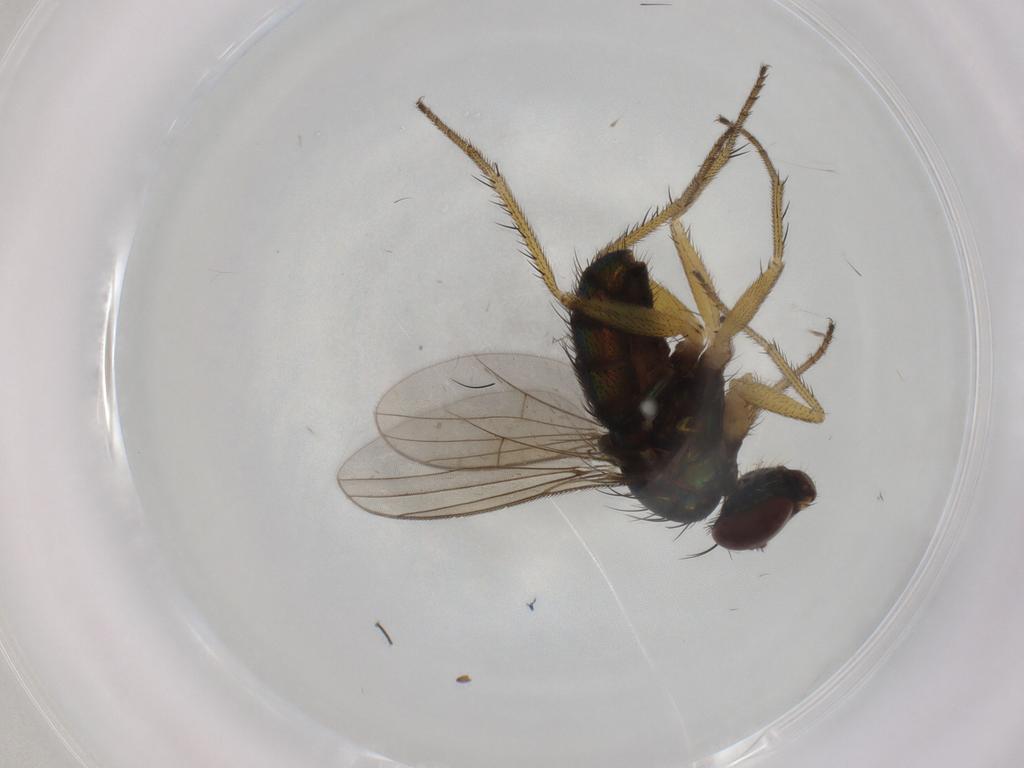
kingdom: Animalia
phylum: Arthropoda
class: Insecta
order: Diptera
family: Dolichopodidae
